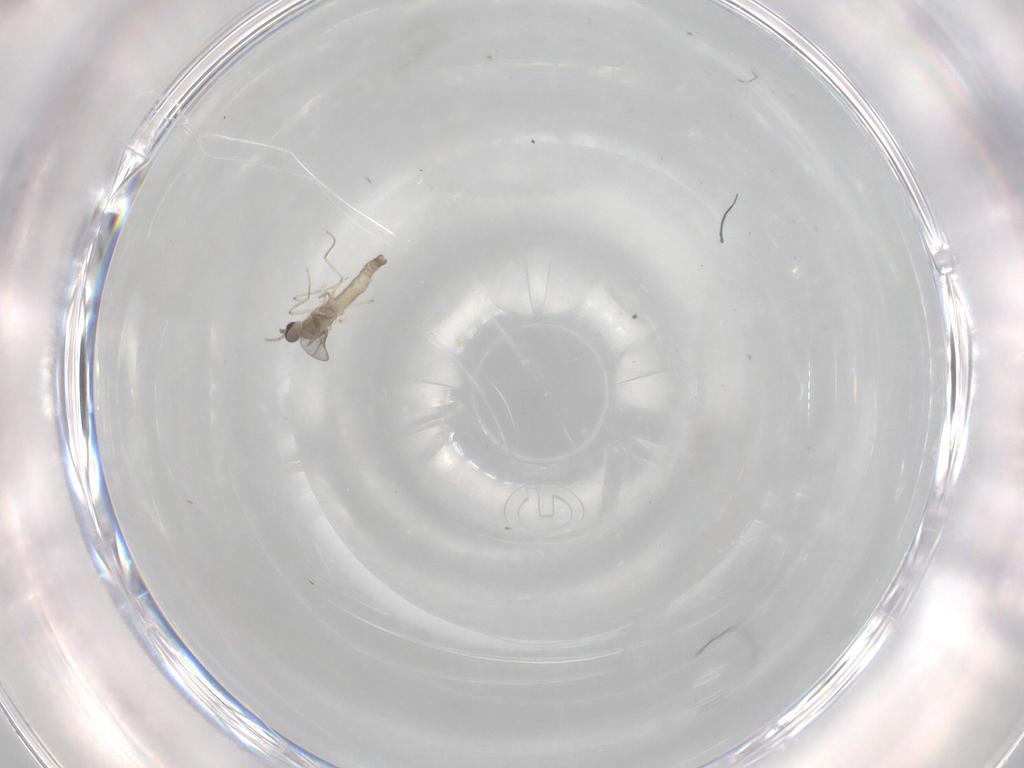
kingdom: Animalia
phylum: Arthropoda
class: Insecta
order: Diptera
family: Cecidomyiidae
